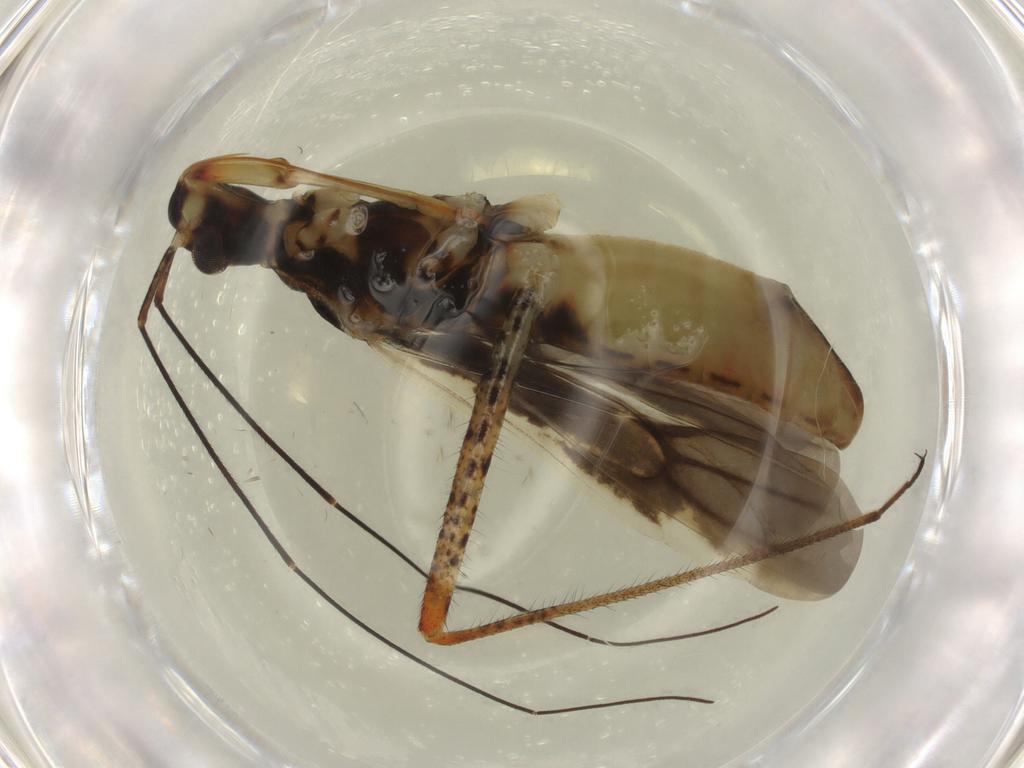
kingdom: Animalia
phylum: Arthropoda
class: Insecta
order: Hemiptera
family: Miridae
